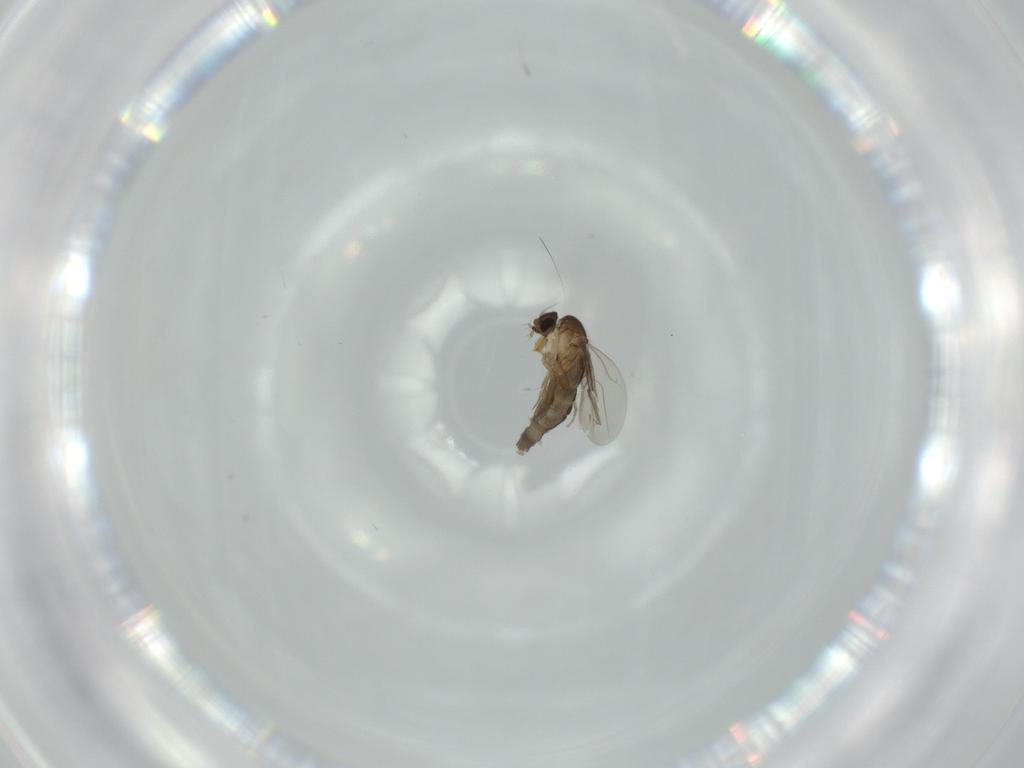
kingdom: Animalia
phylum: Arthropoda
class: Insecta
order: Diptera
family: Phoridae
